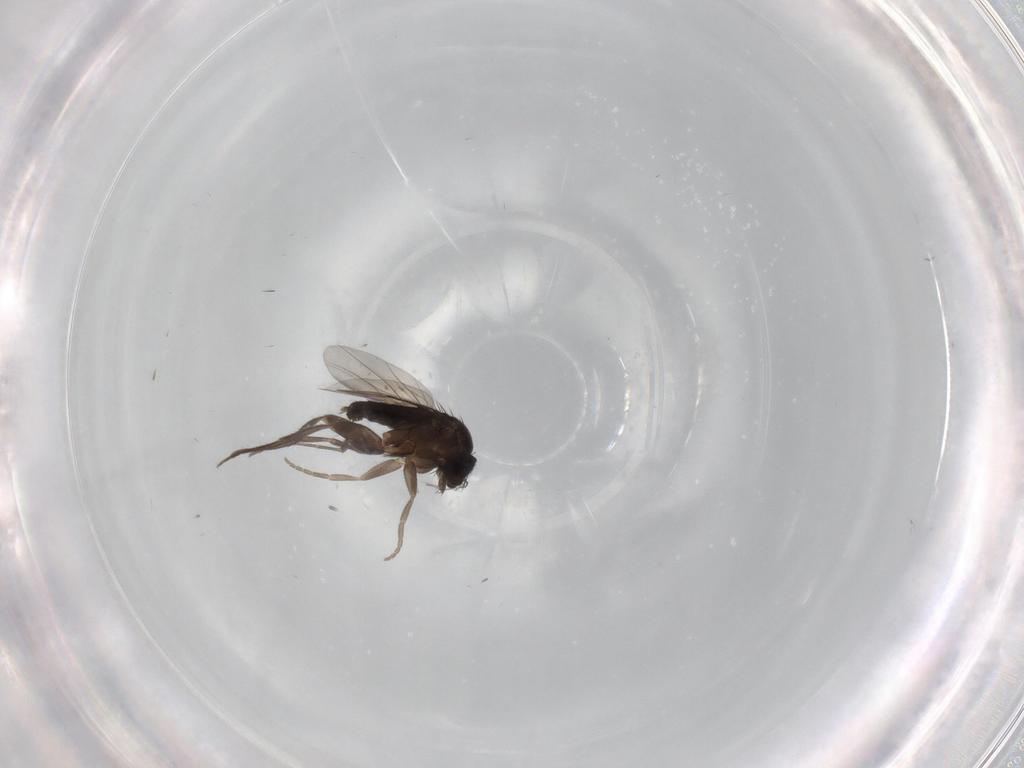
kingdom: Animalia
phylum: Arthropoda
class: Insecta
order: Diptera
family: Phoridae
